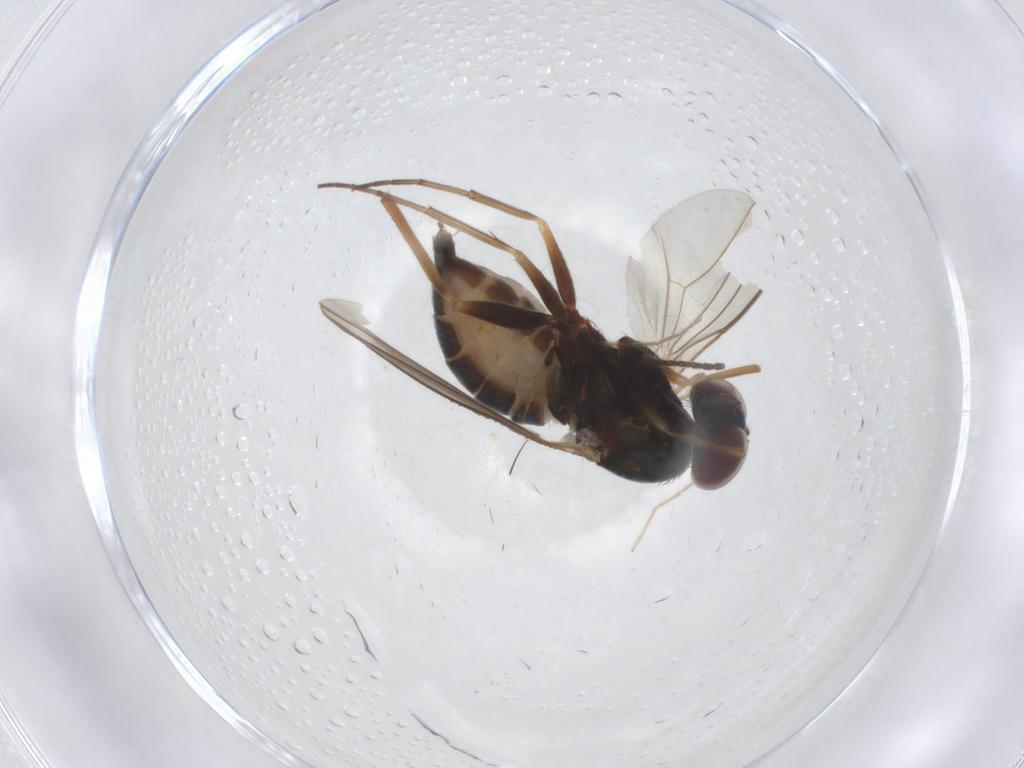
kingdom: Animalia
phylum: Arthropoda
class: Insecta
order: Diptera
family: Dolichopodidae
